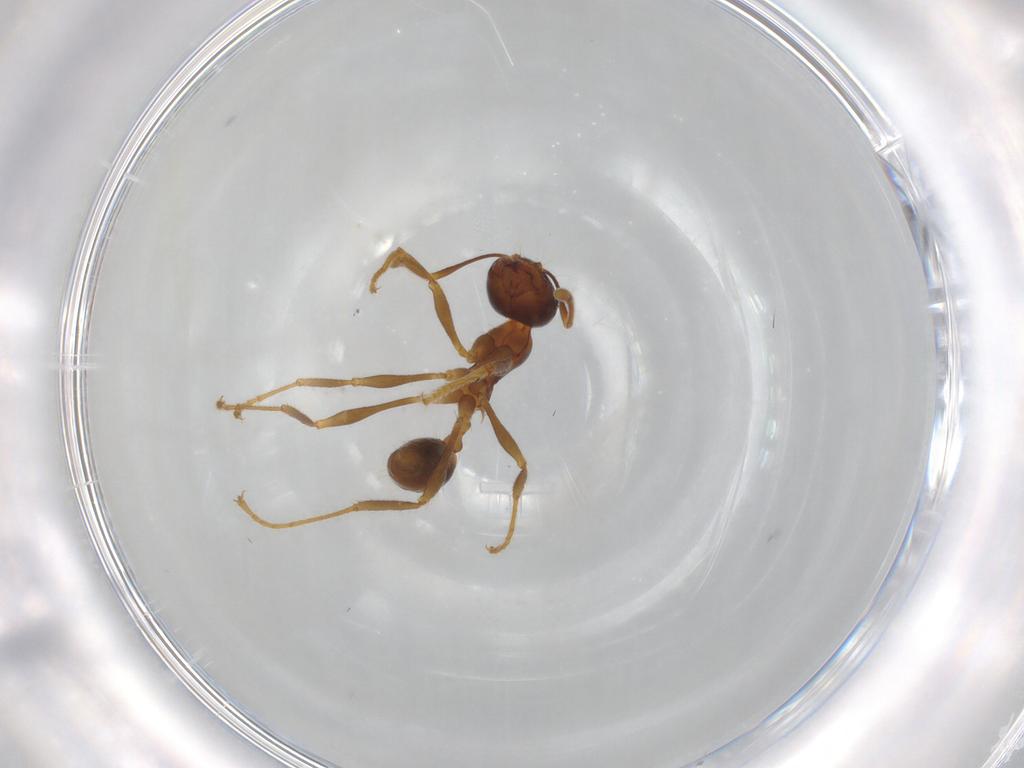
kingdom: Animalia
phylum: Arthropoda
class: Insecta
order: Hymenoptera
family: Formicidae
